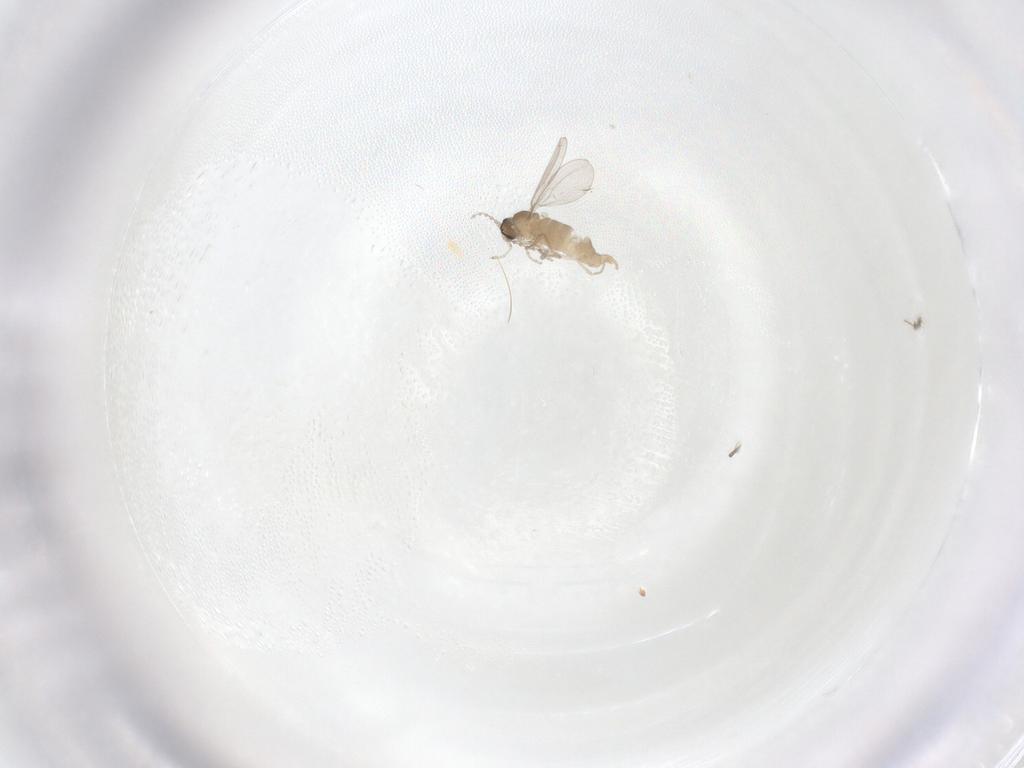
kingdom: Animalia
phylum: Arthropoda
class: Insecta
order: Diptera
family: Cecidomyiidae
